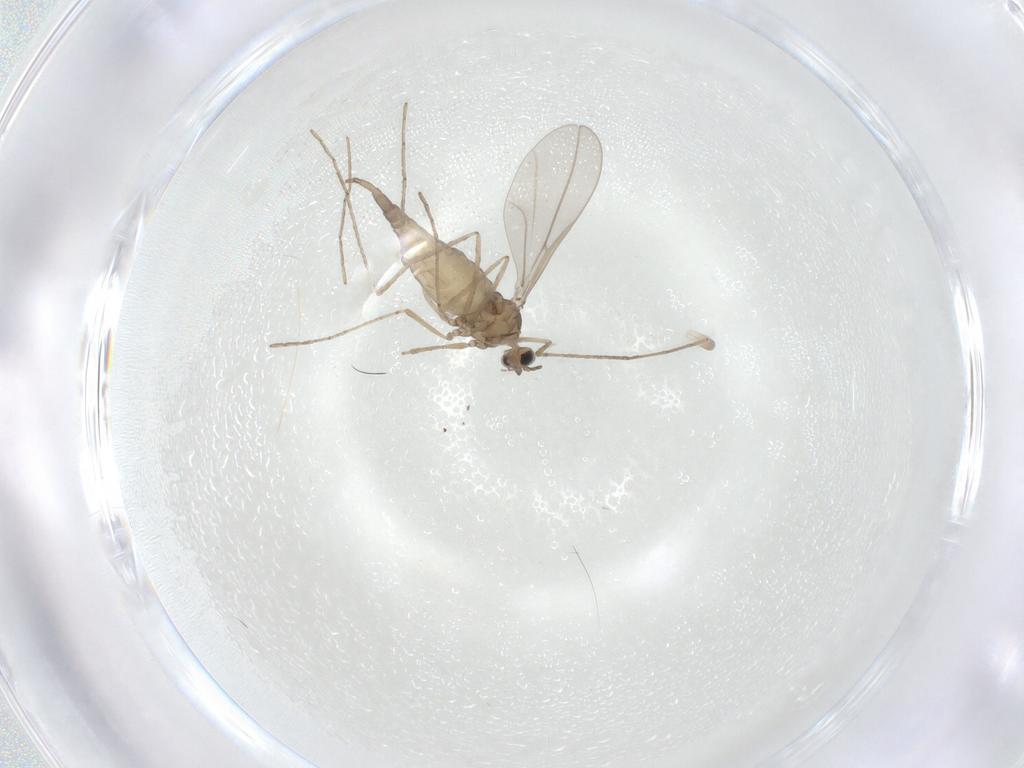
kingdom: Animalia
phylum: Arthropoda
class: Insecta
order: Diptera
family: Cecidomyiidae
